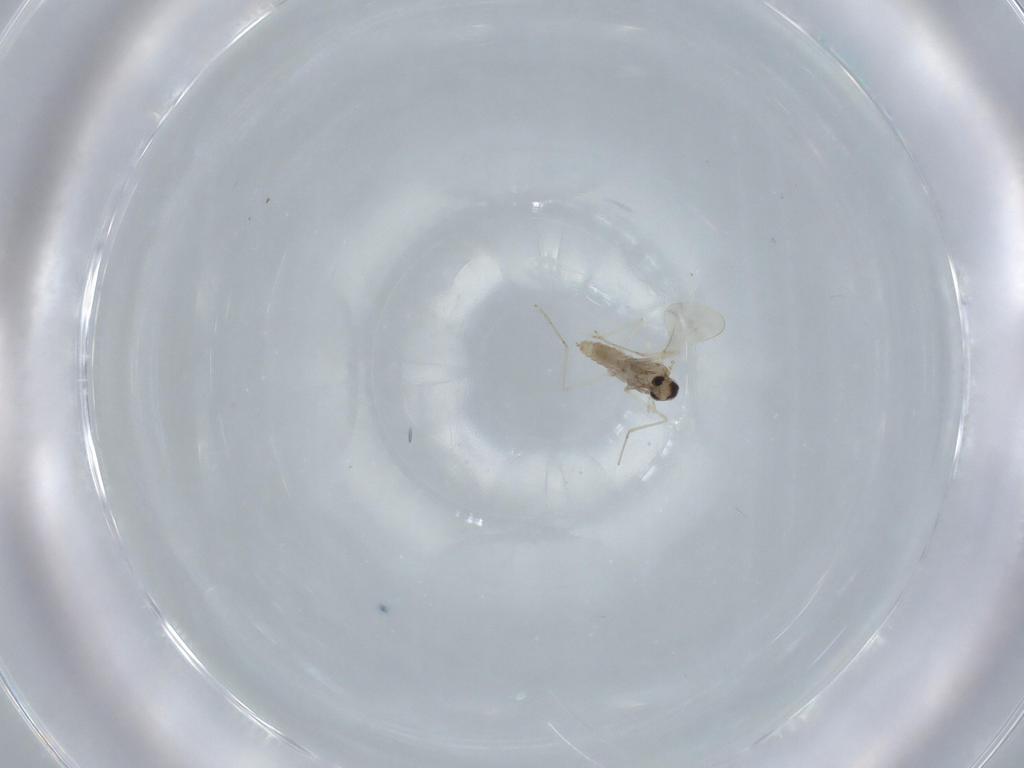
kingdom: Animalia
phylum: Arthropoda
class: Insecta
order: Diptera
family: Cecidomyiidae
